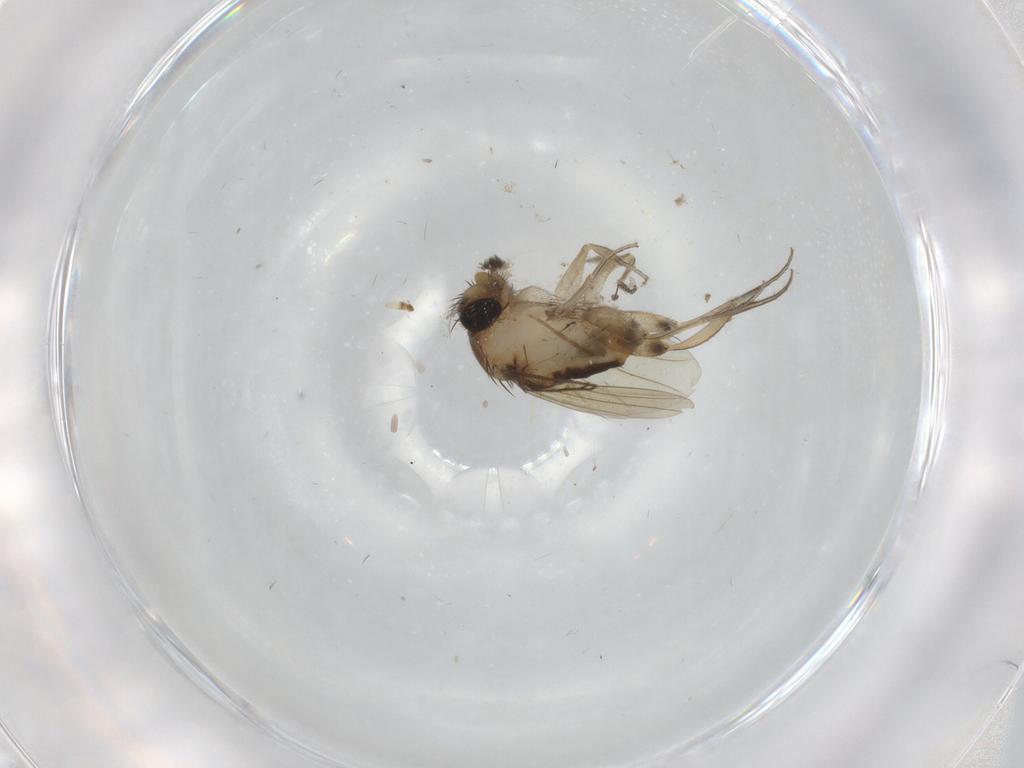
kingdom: Animalia
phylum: Arthropoda
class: Insecta
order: Diptera
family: Phoridae
